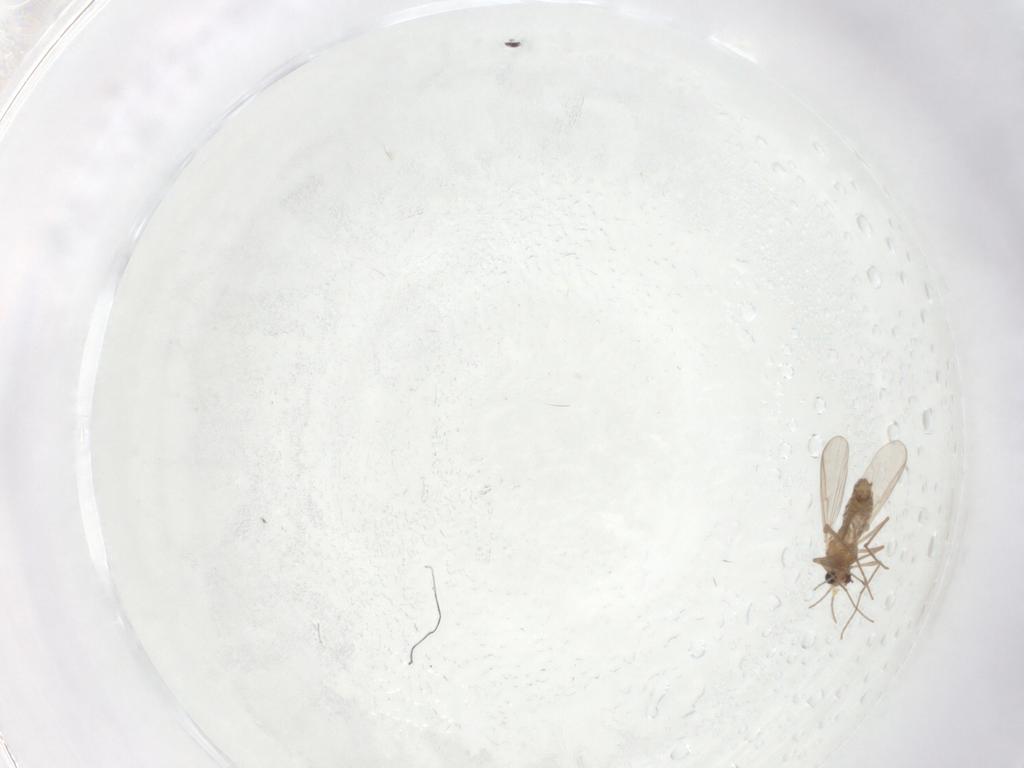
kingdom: Animalia
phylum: Arthropoda
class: Insecta
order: Diptera
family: Chironomidae
